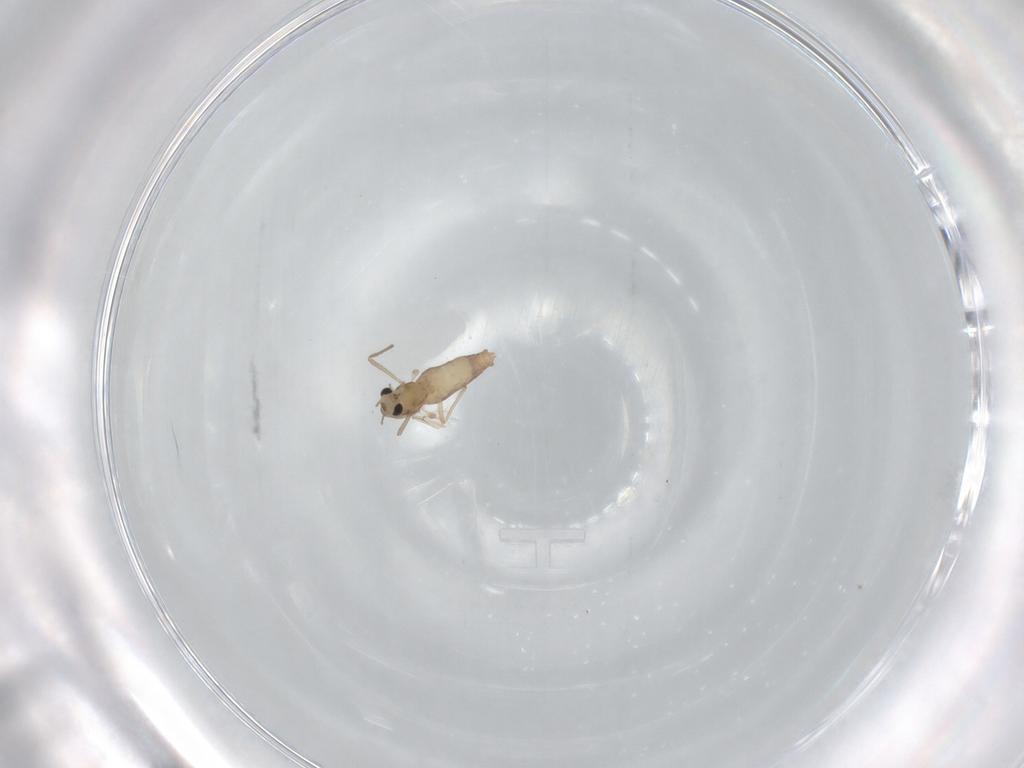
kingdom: Animalia
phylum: Arthropoda
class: Insecta
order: Diptera
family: Chironomidae
